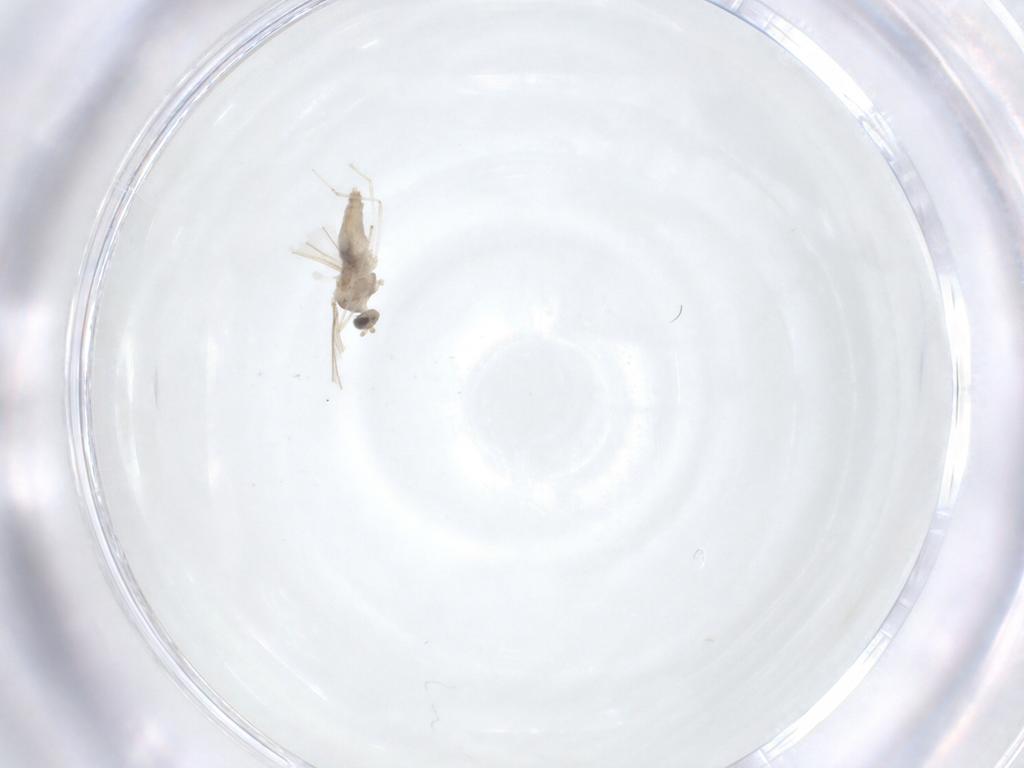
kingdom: Animalia
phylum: Arthropoda
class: Insecta
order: Diptera
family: Cecidomyiidae
